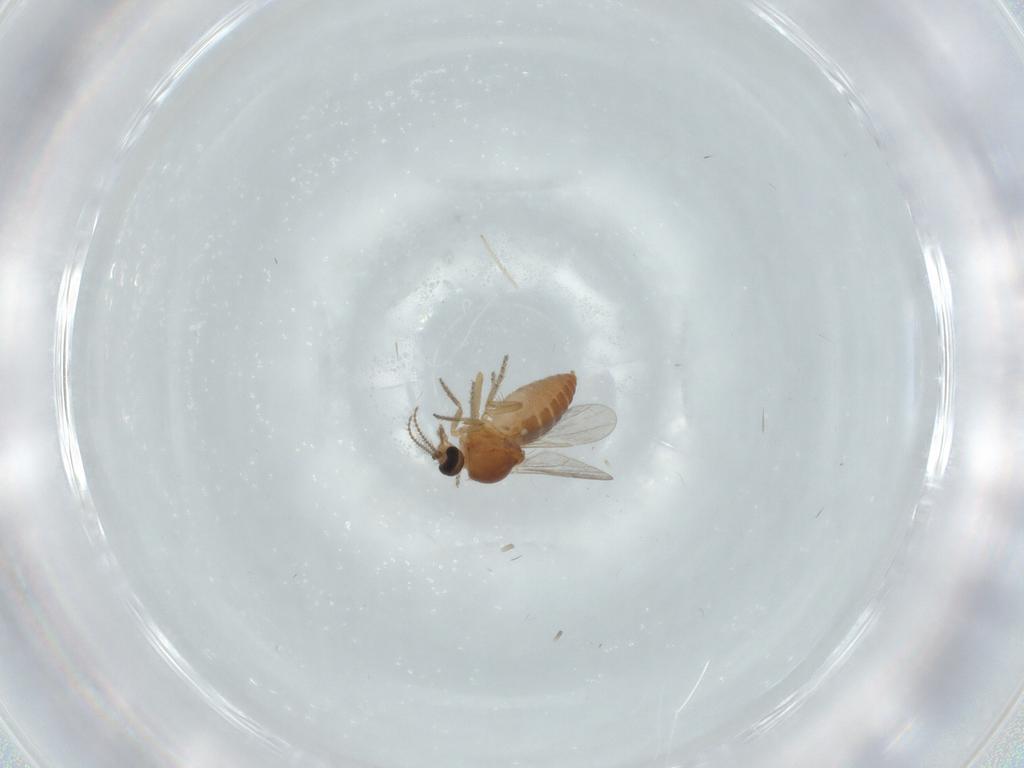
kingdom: Animalia
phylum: Arthropoda
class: Insecta
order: Diptera
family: Ceratopogonidae
